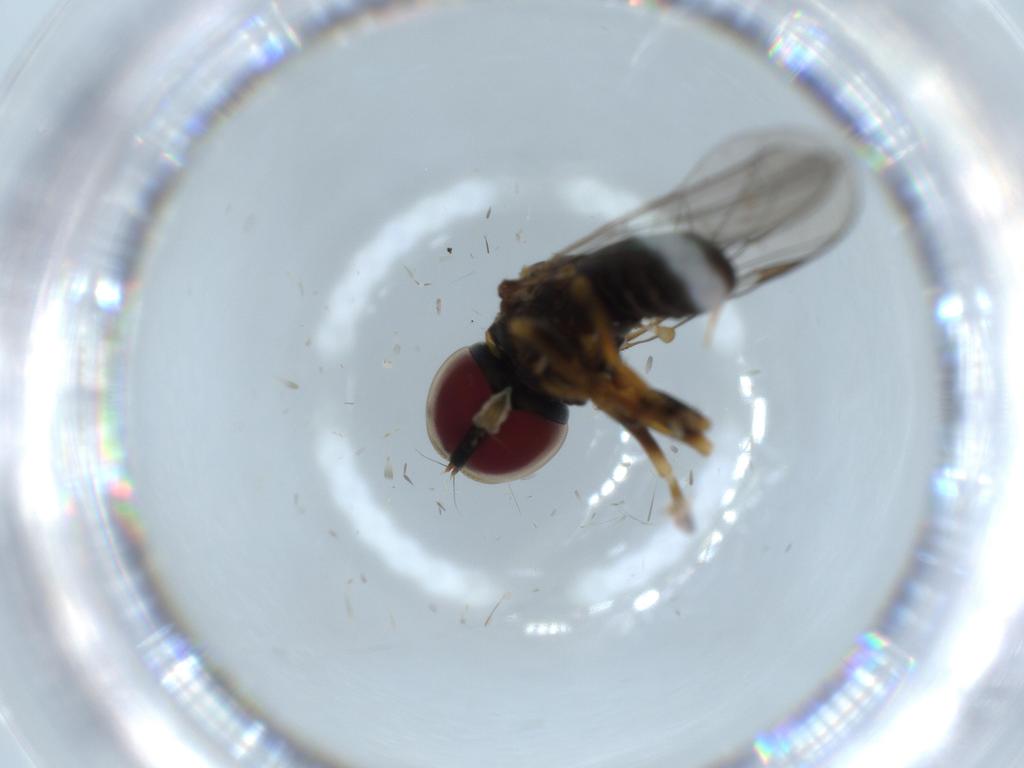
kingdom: Animalia
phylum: Arthropoda
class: Insecta
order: Diptera
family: Pipunculidae
